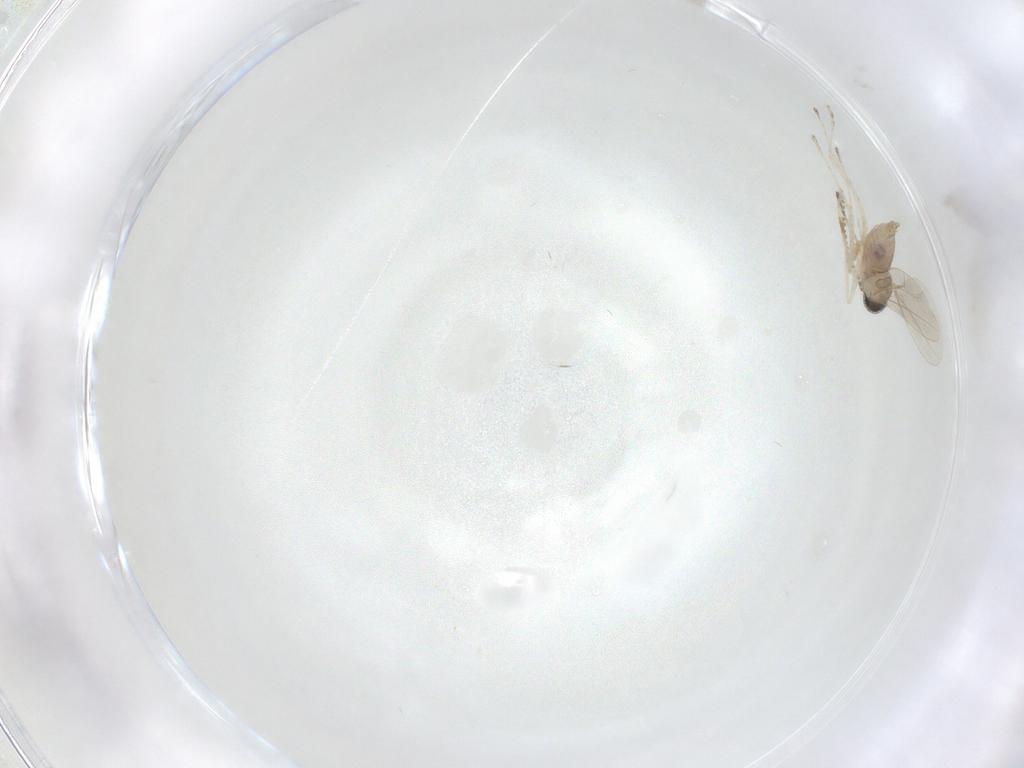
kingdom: Animalia
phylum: Arthropoda
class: Insecta
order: Diptera
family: Cecidomyiidae
